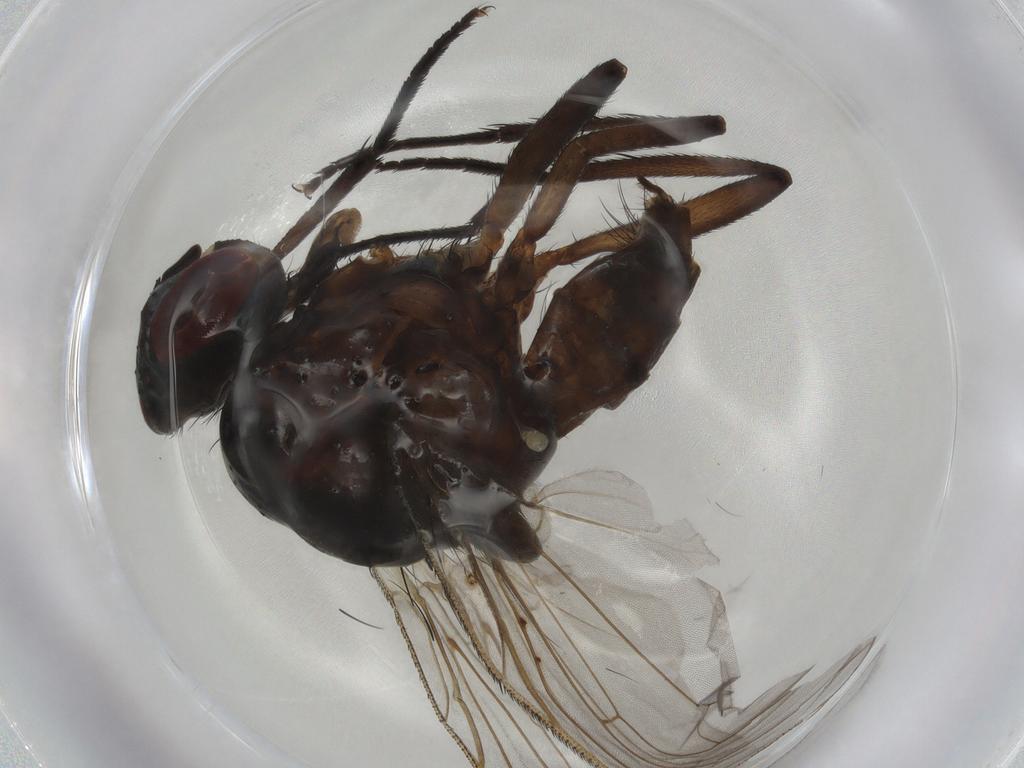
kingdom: Animalia
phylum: Arthropoda
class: Insecta
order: Diptera
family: Anthomyiidae
